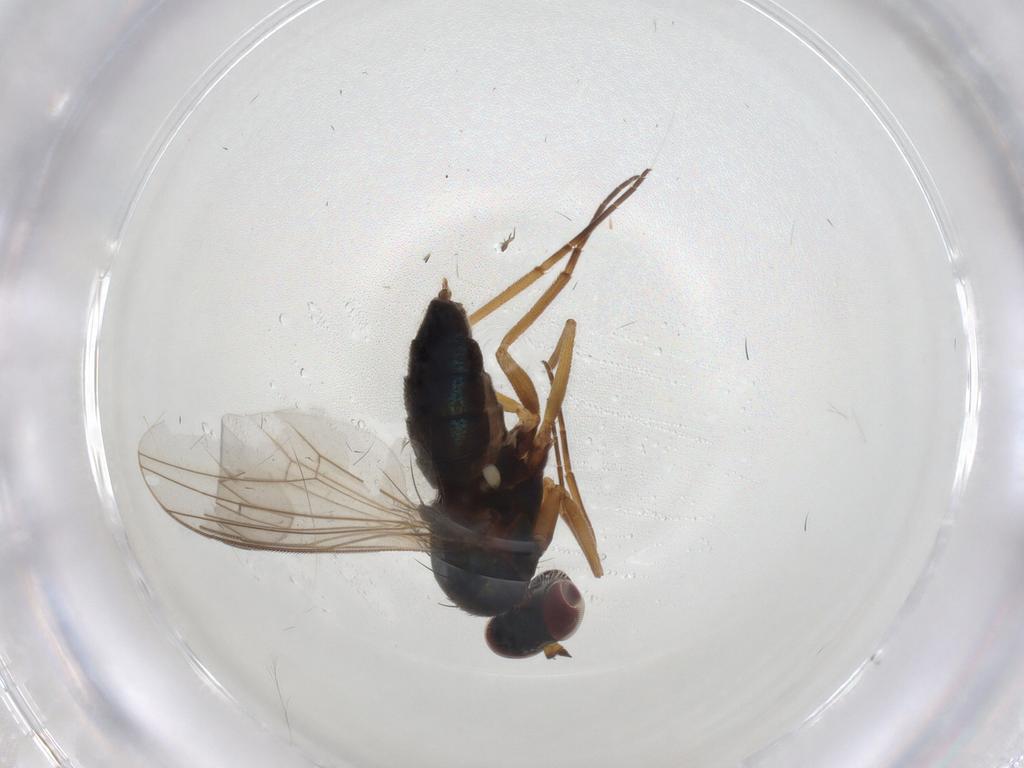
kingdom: Animalia
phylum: Arthropoda
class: Insecta
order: Diptera
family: Dolichopodidae
